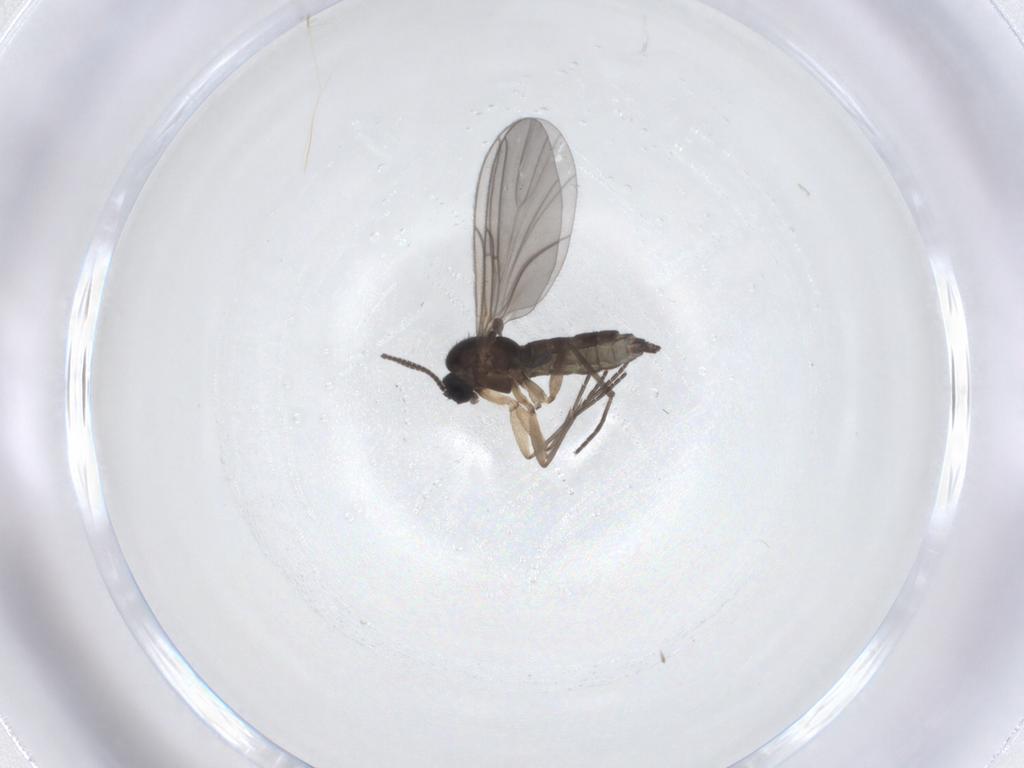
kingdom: Animalia
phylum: Arthropoda
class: Insecta
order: Diptera
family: Sciaridae
